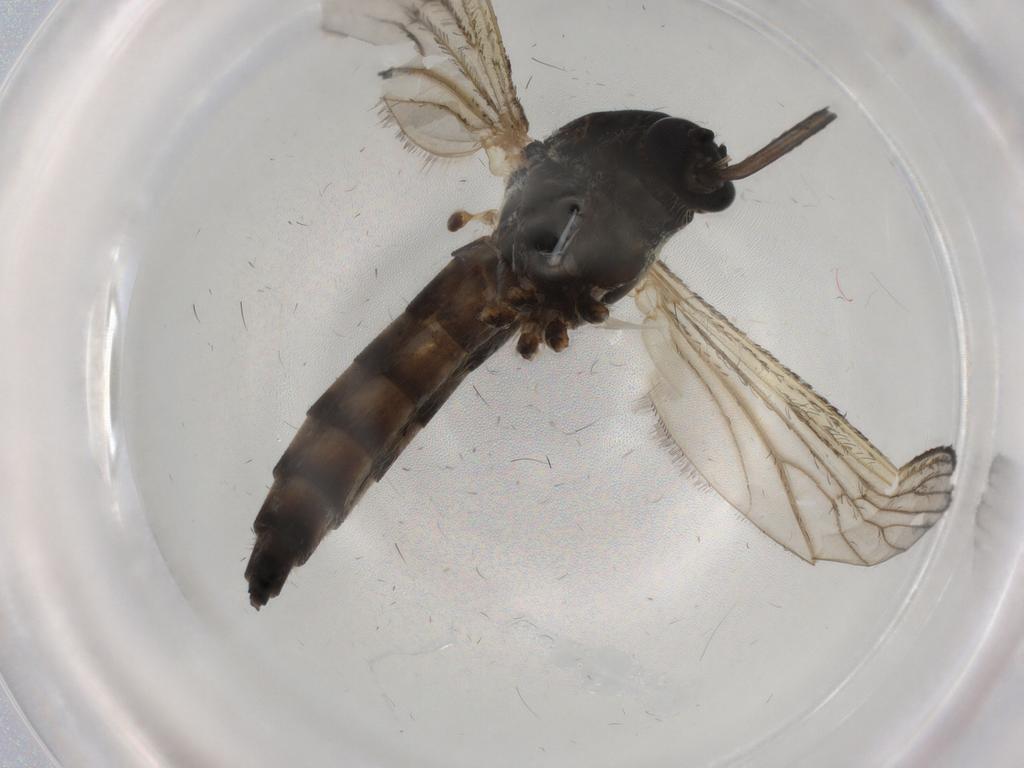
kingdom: Animalia
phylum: Arthropoda
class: Insecta
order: Diptera
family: Chironomidae
